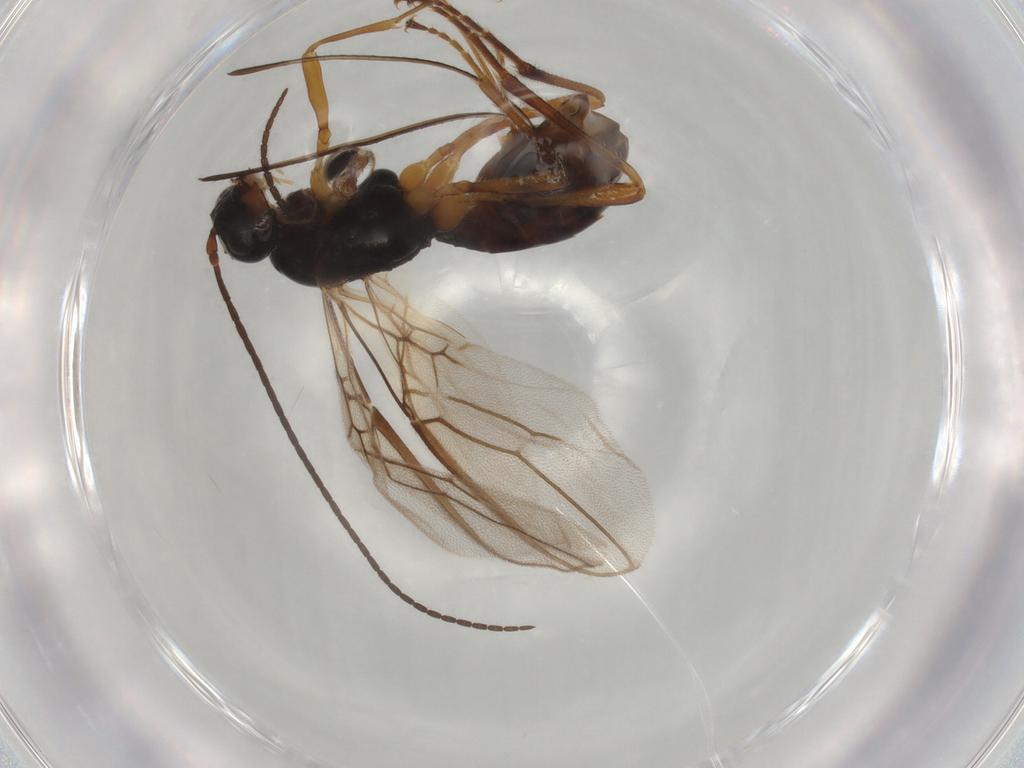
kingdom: Animalia
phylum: Arthropoda
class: Insecta
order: Hymenoptera
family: Braconidae
